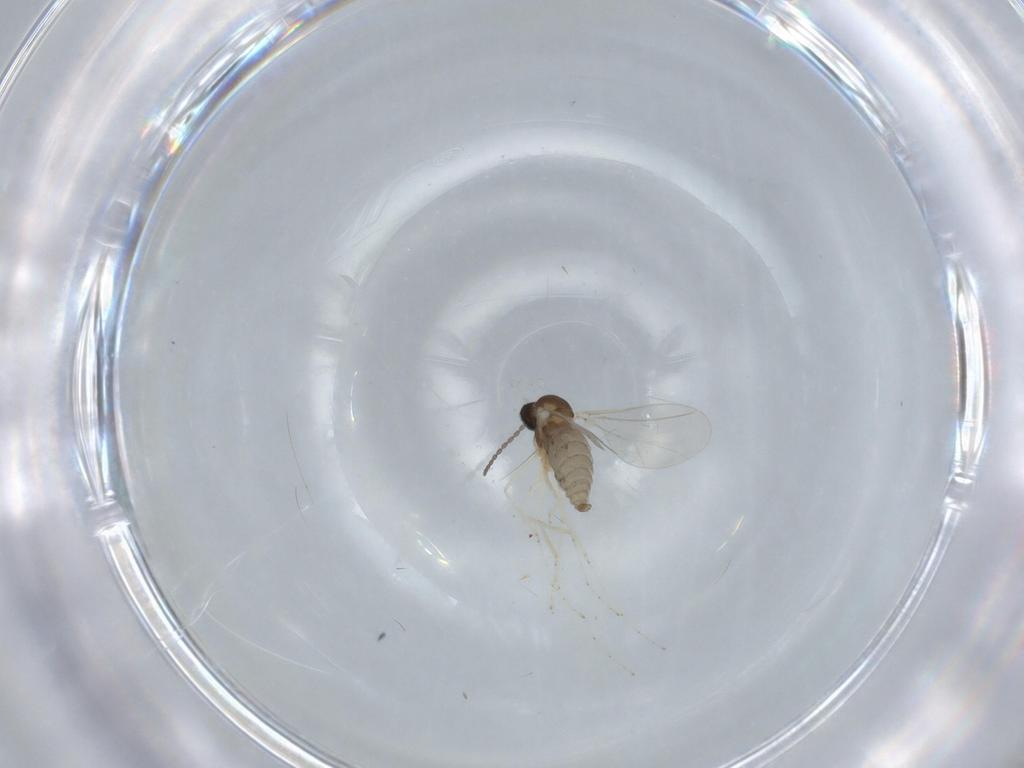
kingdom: Animalia
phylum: Arthropoda
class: Insecta
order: Diptera
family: Cecidomyiidae
